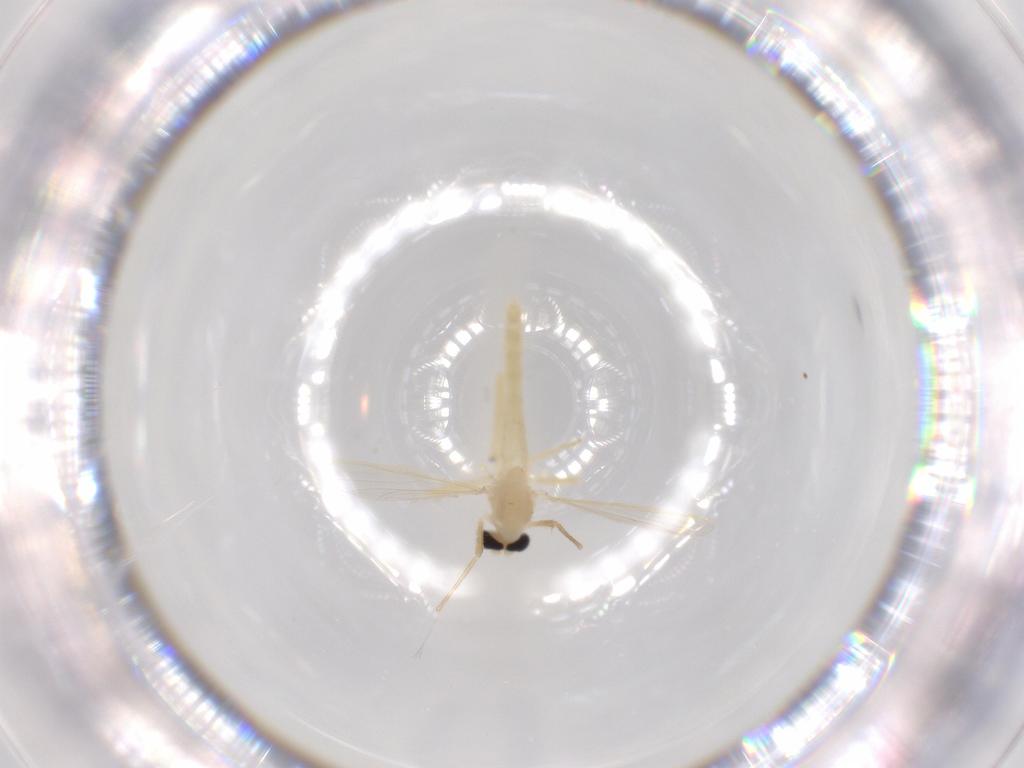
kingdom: Animalia
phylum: Arthropoda
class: Insecta
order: Diptera
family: Chironomidae
